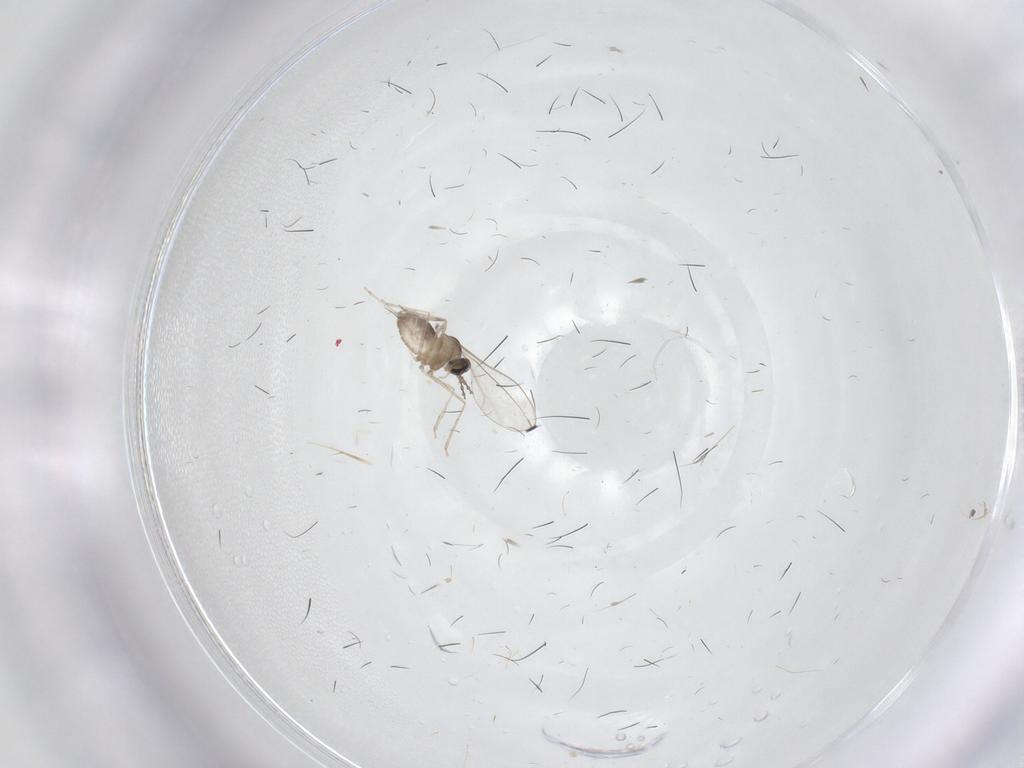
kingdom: Animalia
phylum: Arthropoda
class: Insecta
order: Diptera
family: Cecidomyiidae
